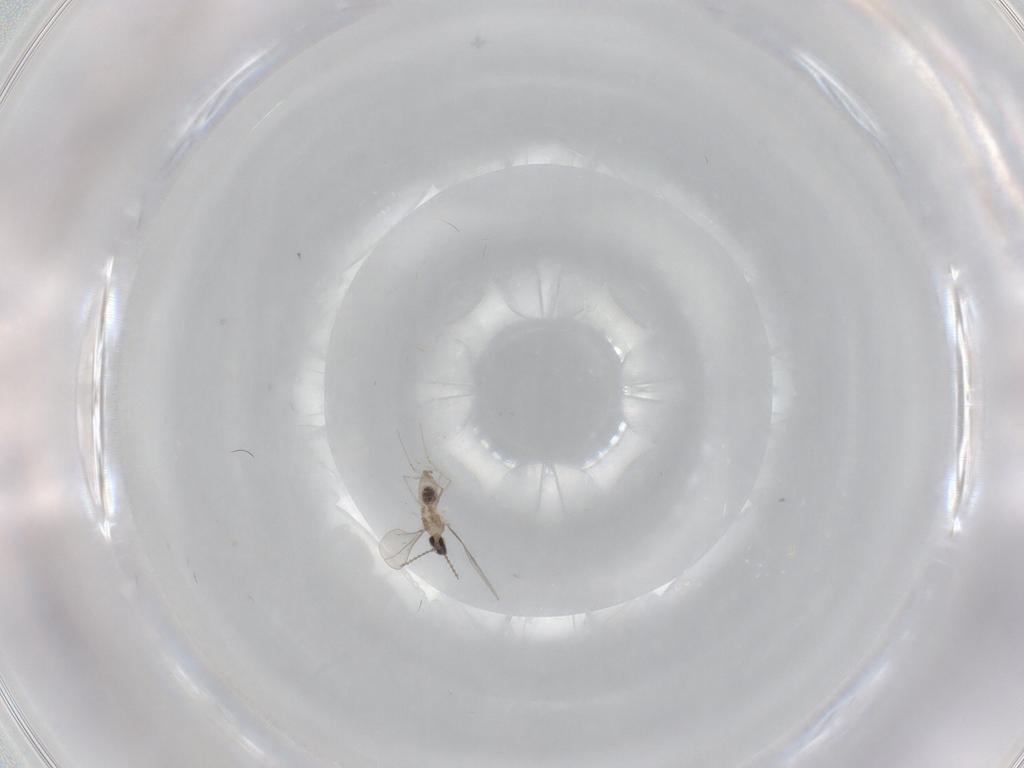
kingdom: Animalia
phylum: Arthropoda
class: Insecta
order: Diptera
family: Cecidomyiidae
